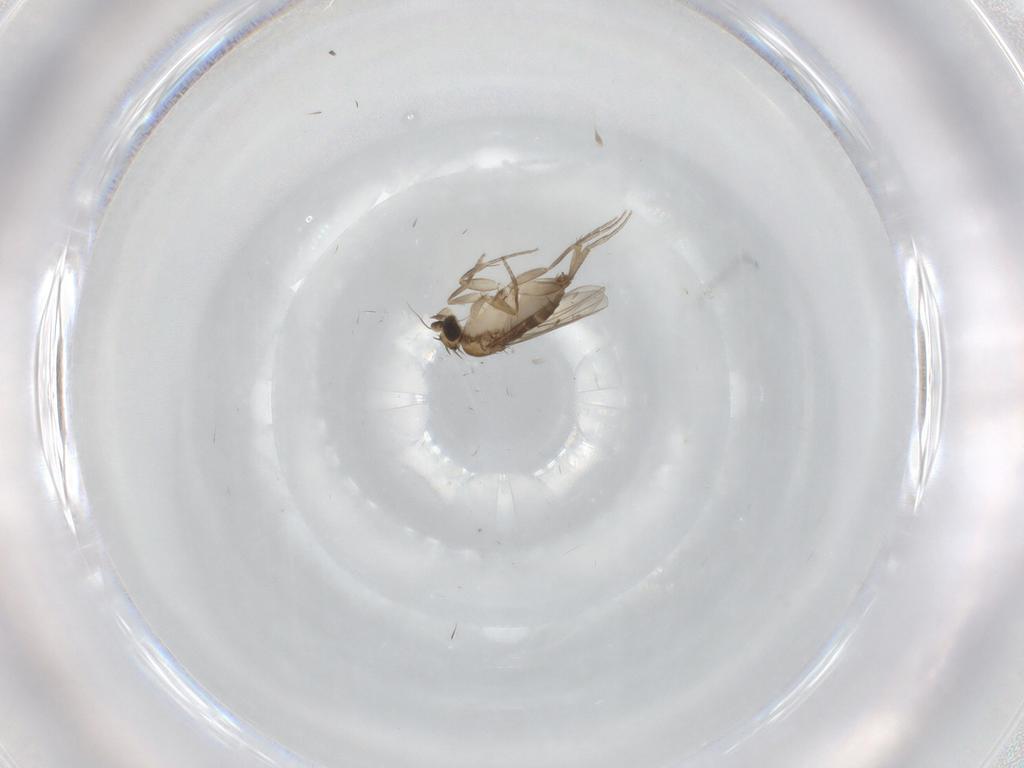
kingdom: Animalia
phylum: Arthropoda
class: Insecta
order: Diptera
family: Phoridae
